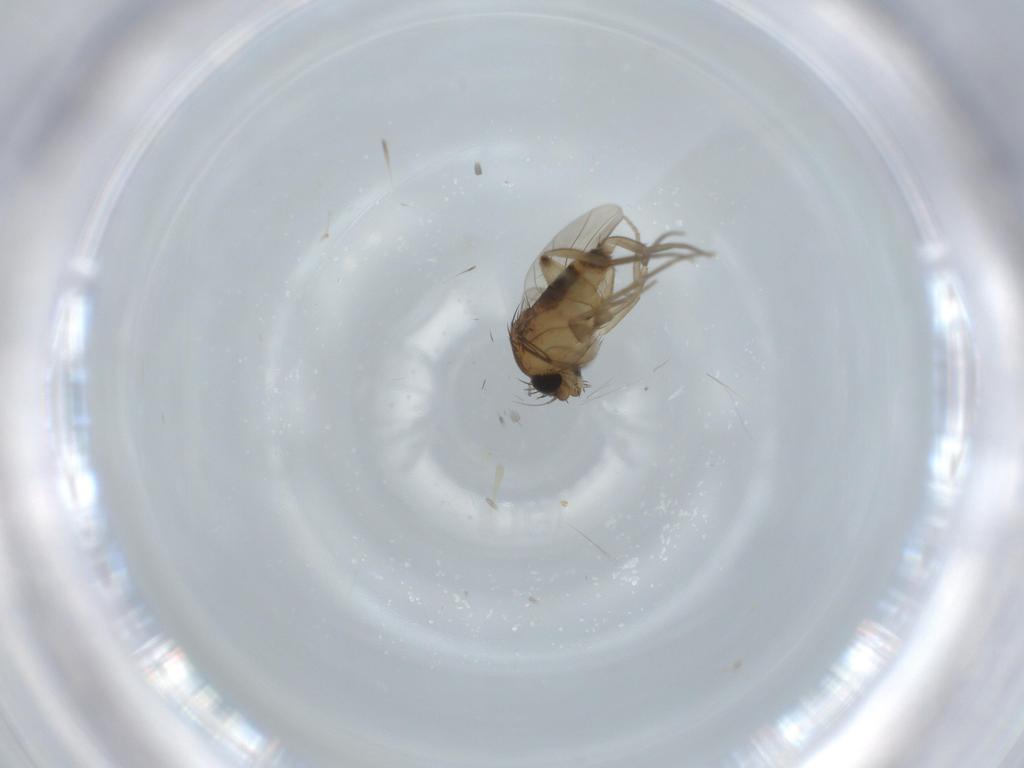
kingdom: Animalia
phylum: Arthropoda
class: Insecta
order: Diptera
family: Phoridae
